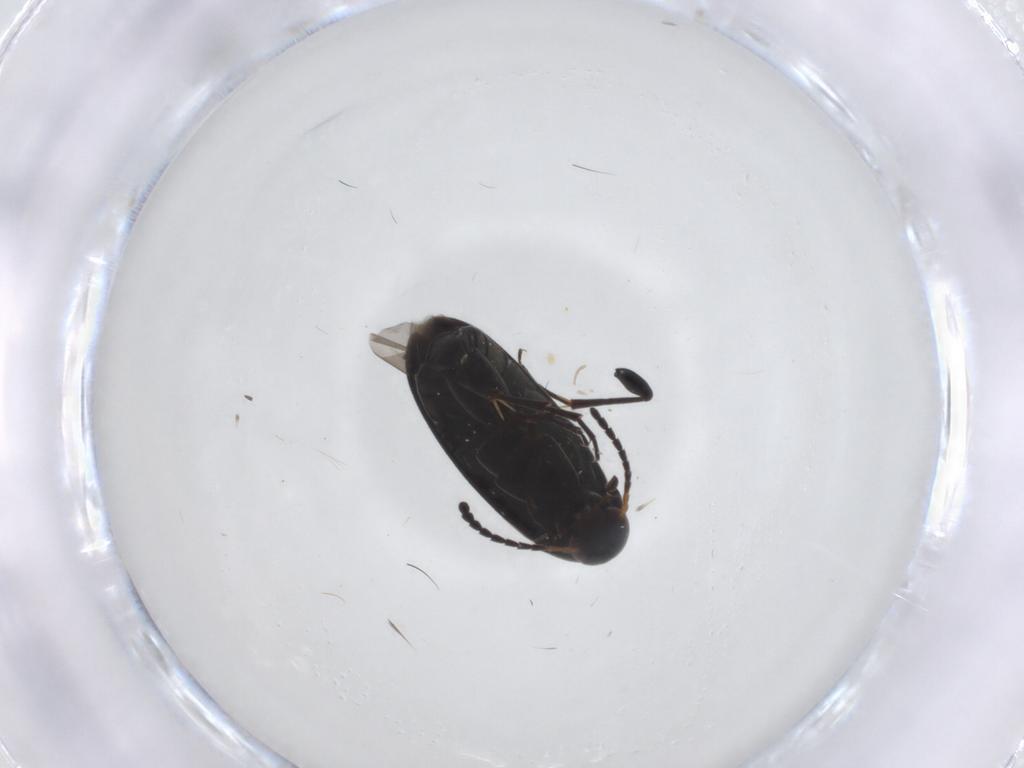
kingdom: Animalia
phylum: Arthropoda
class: Insecta
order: Coleoptera
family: Scraptiidae
